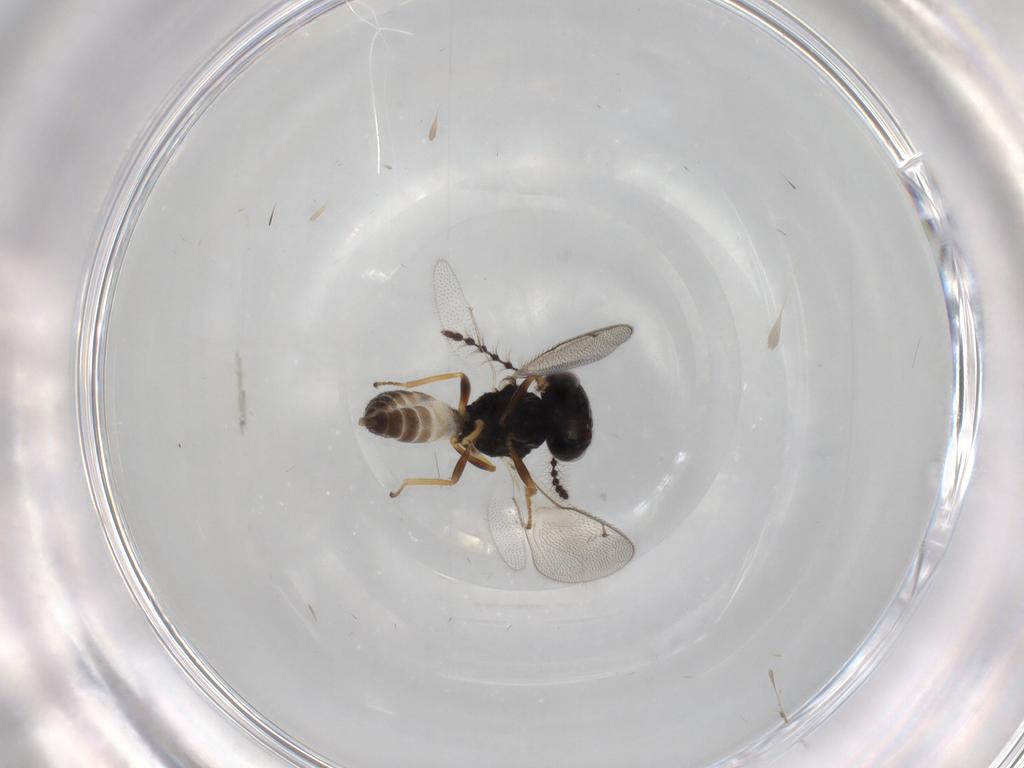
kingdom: Animalia
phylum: Arthropoda
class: Insecta
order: Hymenoptera
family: Pteromalidae
